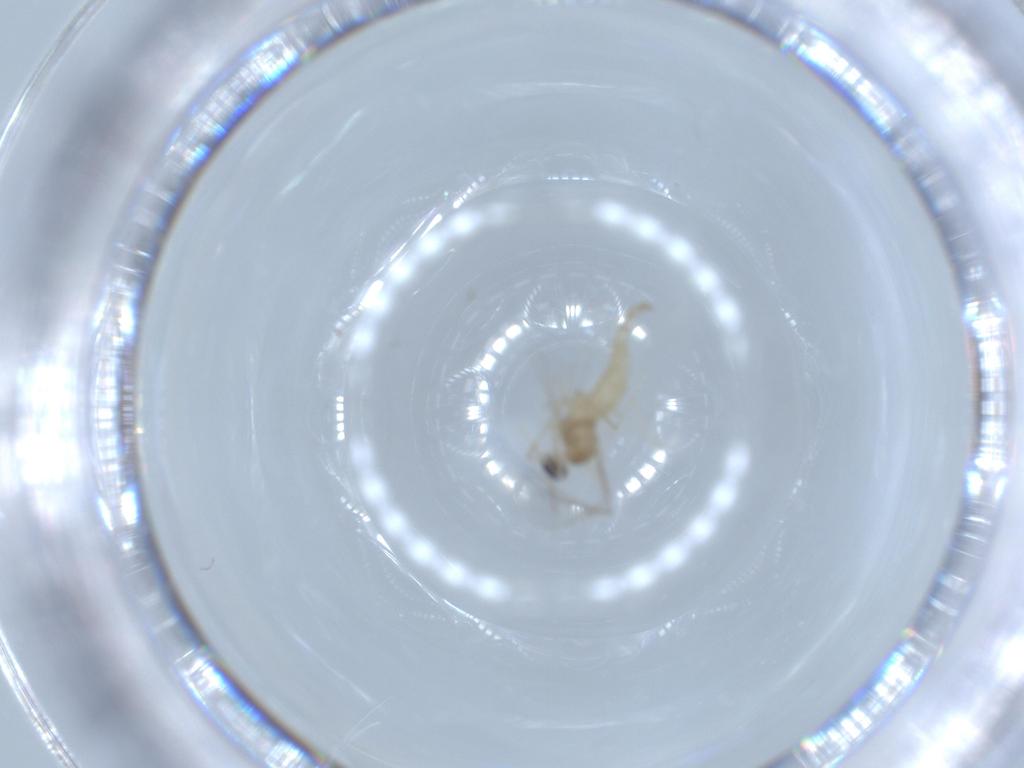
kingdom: Animalia
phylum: Arthropoda
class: Insecta
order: Diptera
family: Cecidomyiidae
